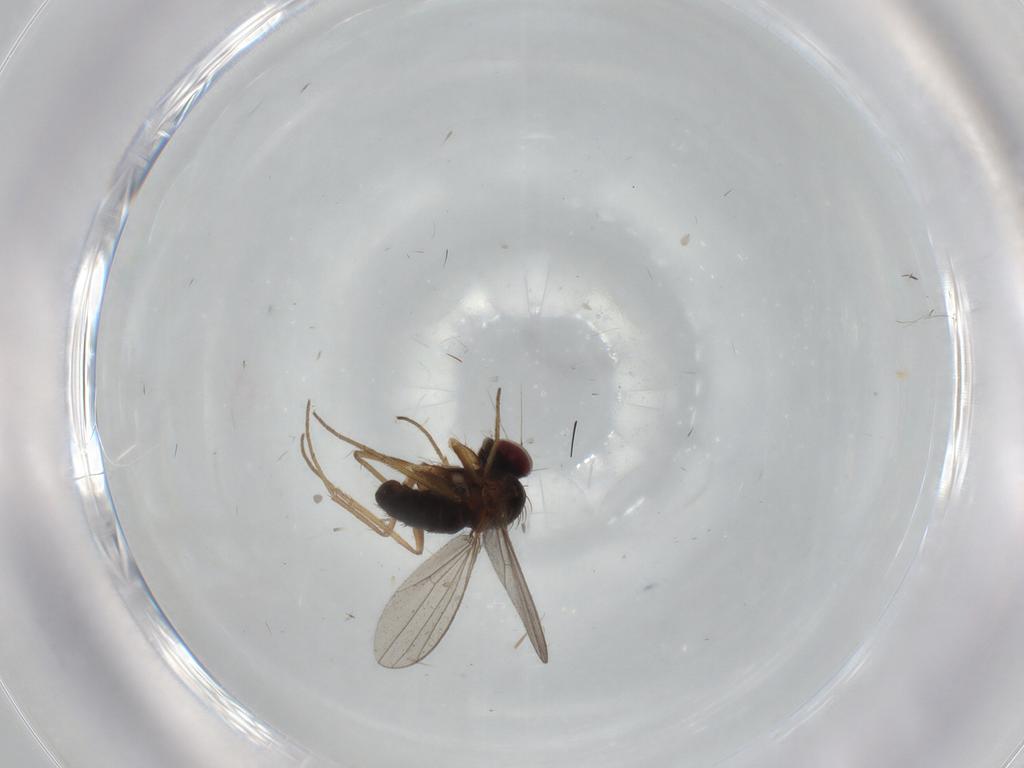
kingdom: Animalia
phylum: Arthropoda
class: Insecta
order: Diptera
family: Dolichopodidae
